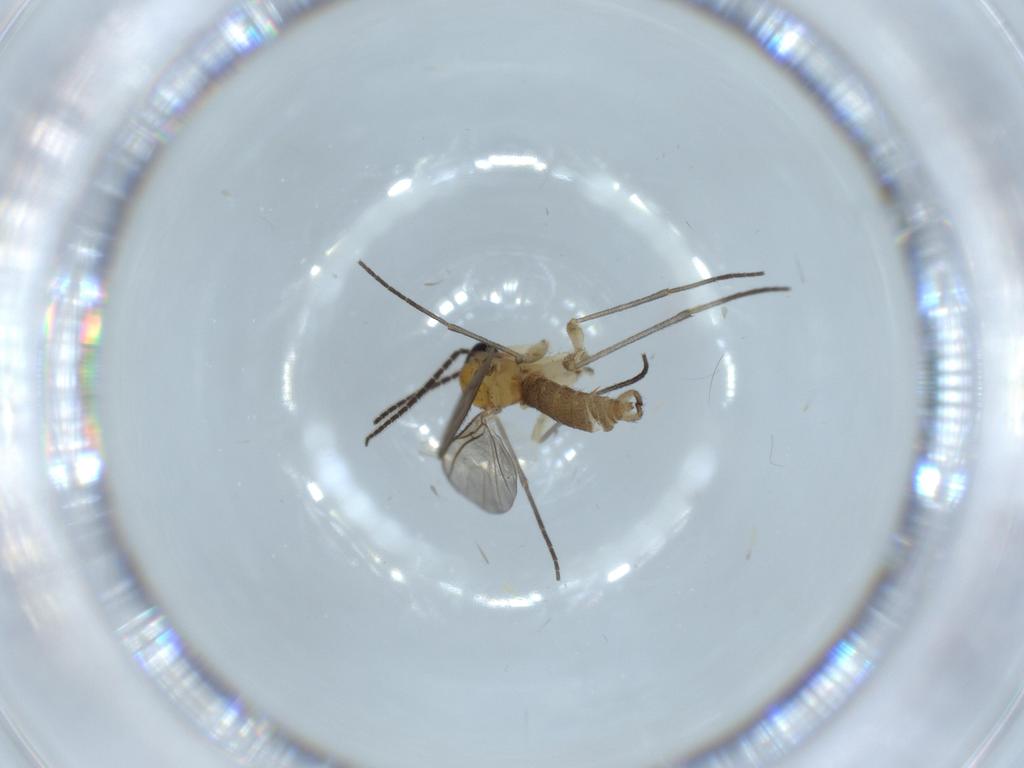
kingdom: Animalia
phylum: Arthropoda
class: Insecta
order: Diptera
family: Sciaridae
